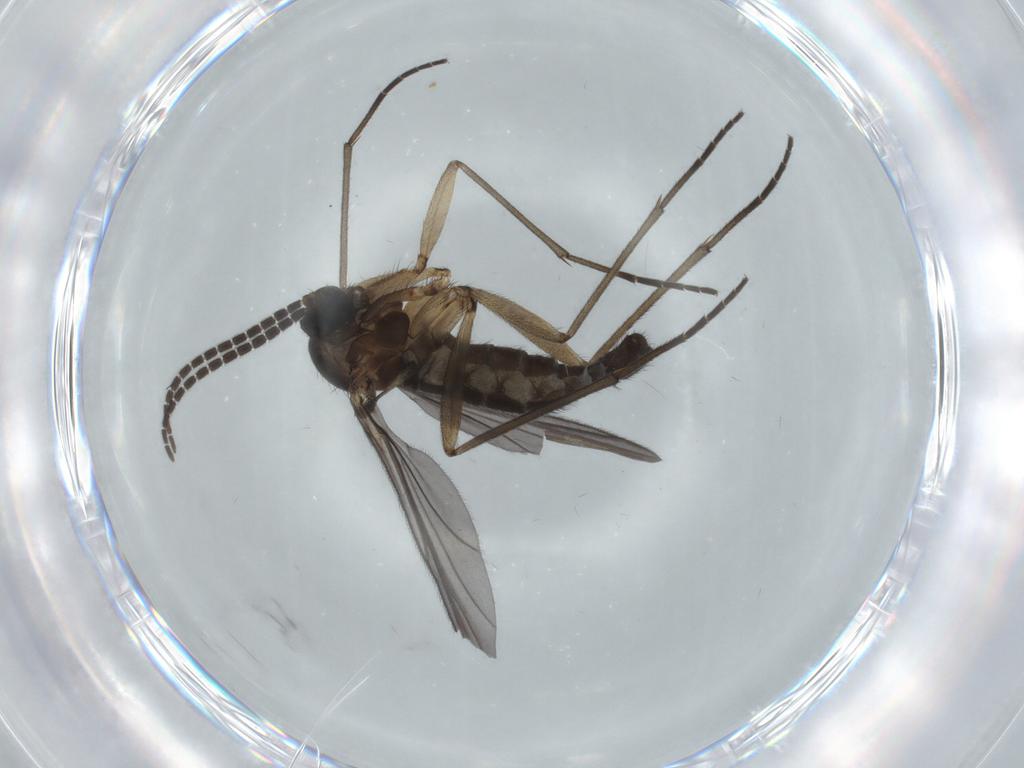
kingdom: Animalia
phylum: Arthropoda
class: Insecta
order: Diptera
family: Sciaridae
